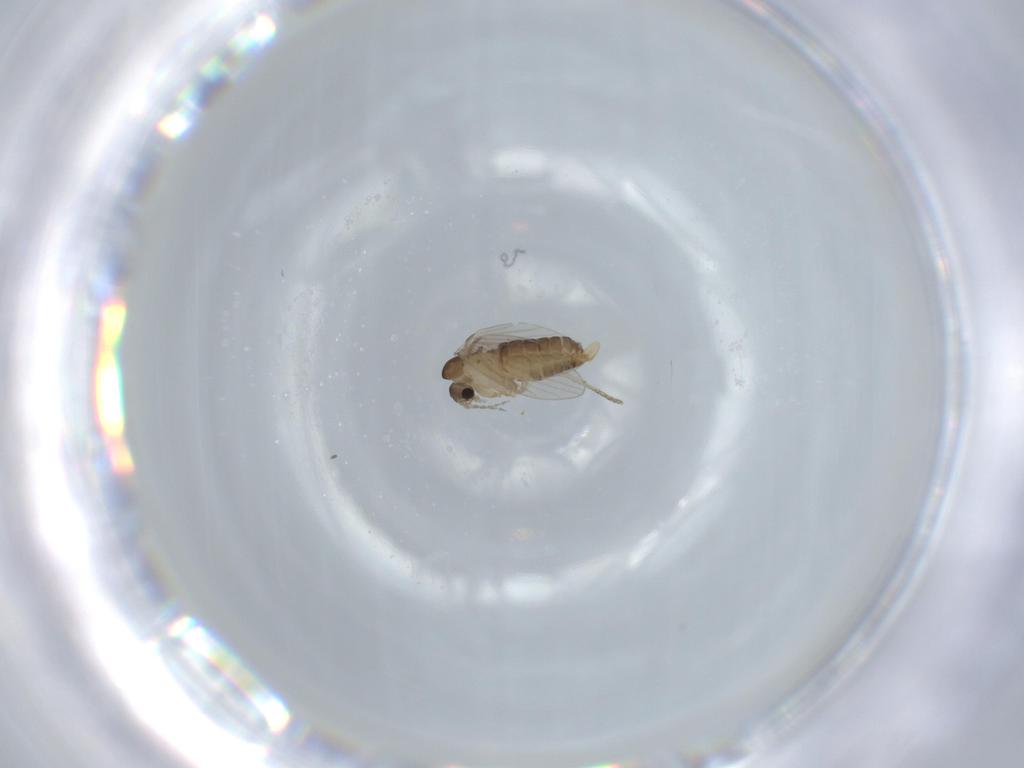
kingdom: Animalia
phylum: Arthropoda
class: Insecta
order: Diptera
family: Psychodidae
